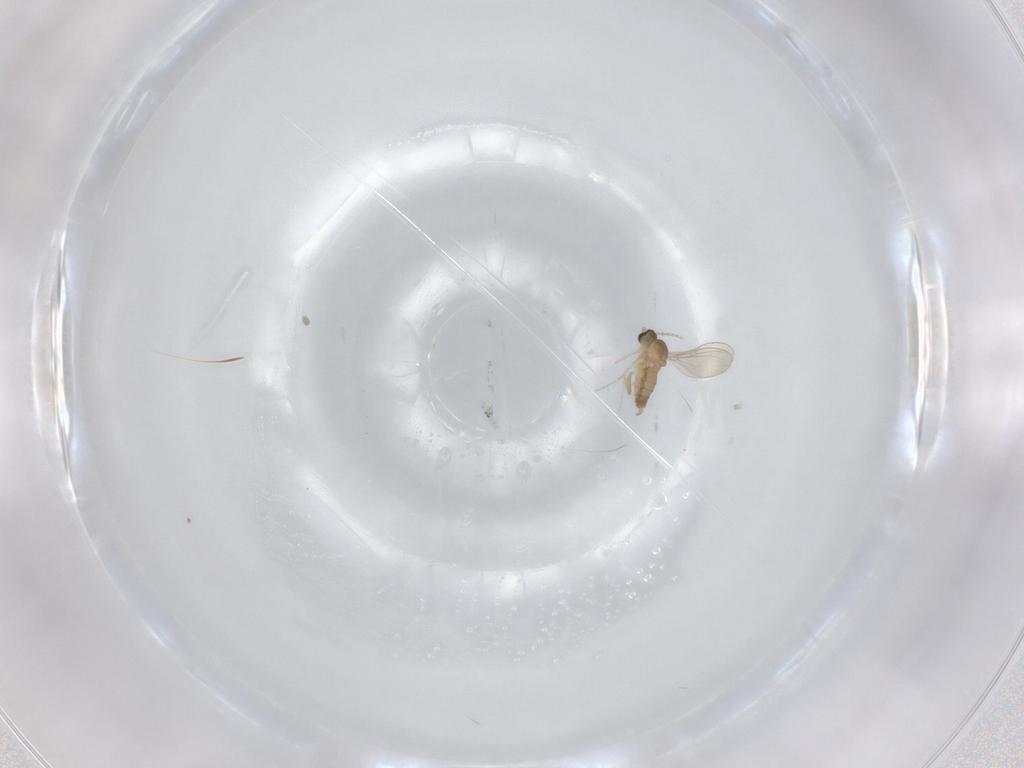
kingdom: Animalia
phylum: Arthropoda
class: Insecta
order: Diptera
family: Cecidomyiidae
